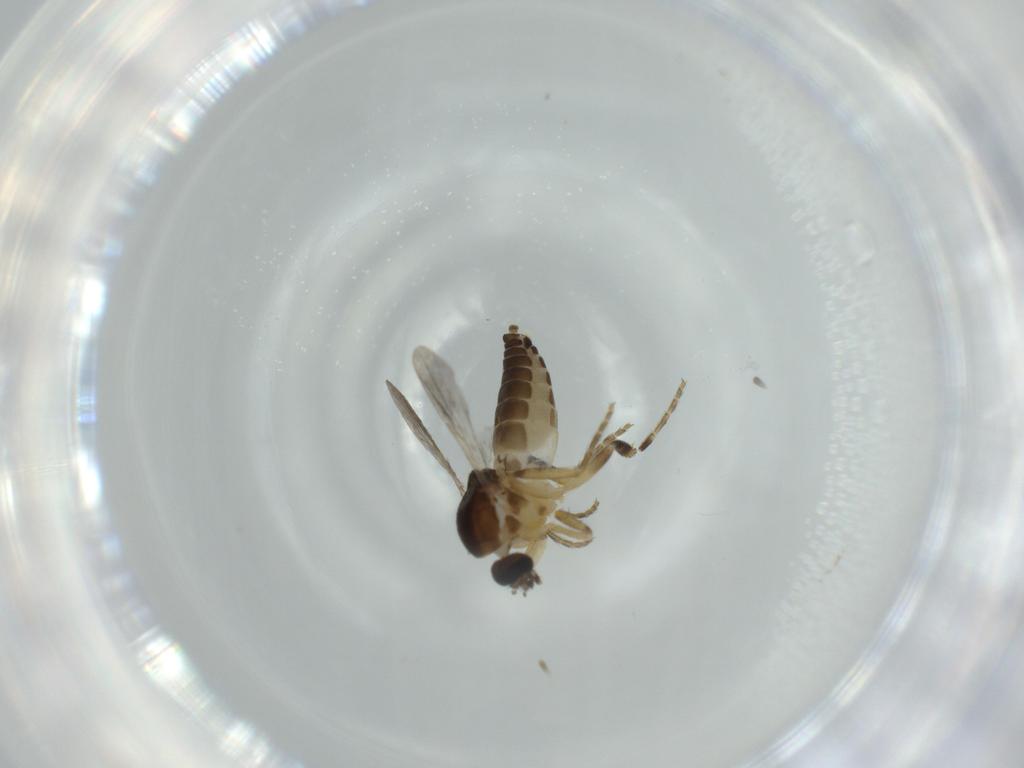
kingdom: Animalia
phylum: Arthropoda
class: Insecta
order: Diptera
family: Ceratopogonidae
